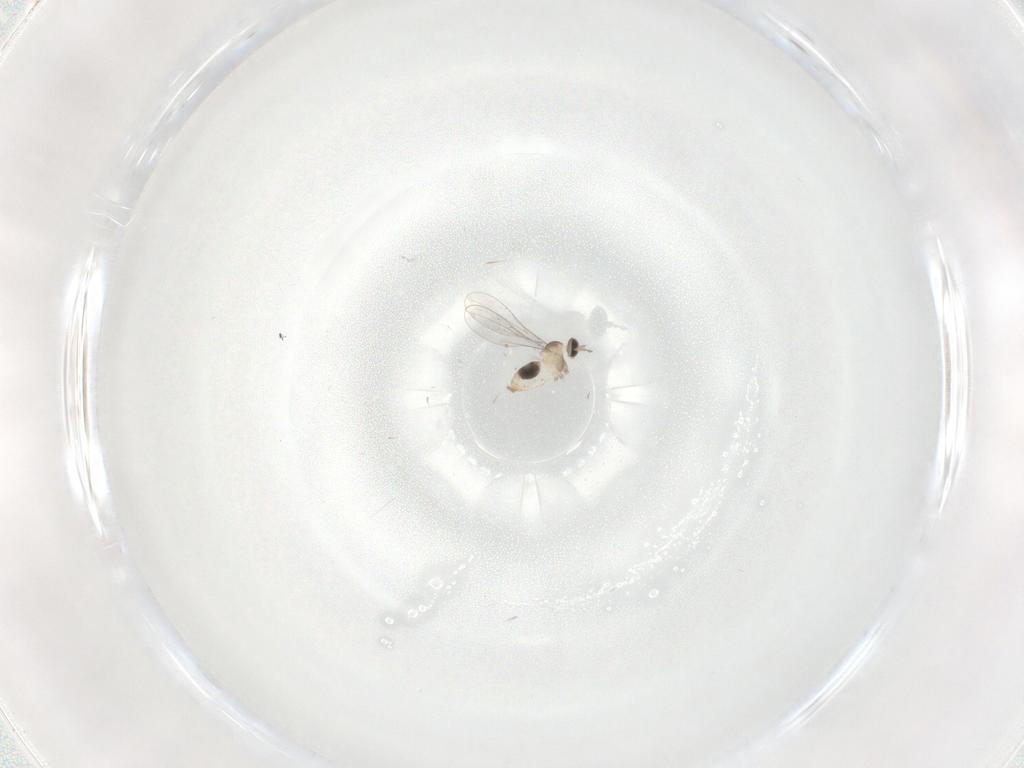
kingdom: Animalia
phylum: Arthropoda
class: Insecta
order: Diptera
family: Cecidomyiidae
